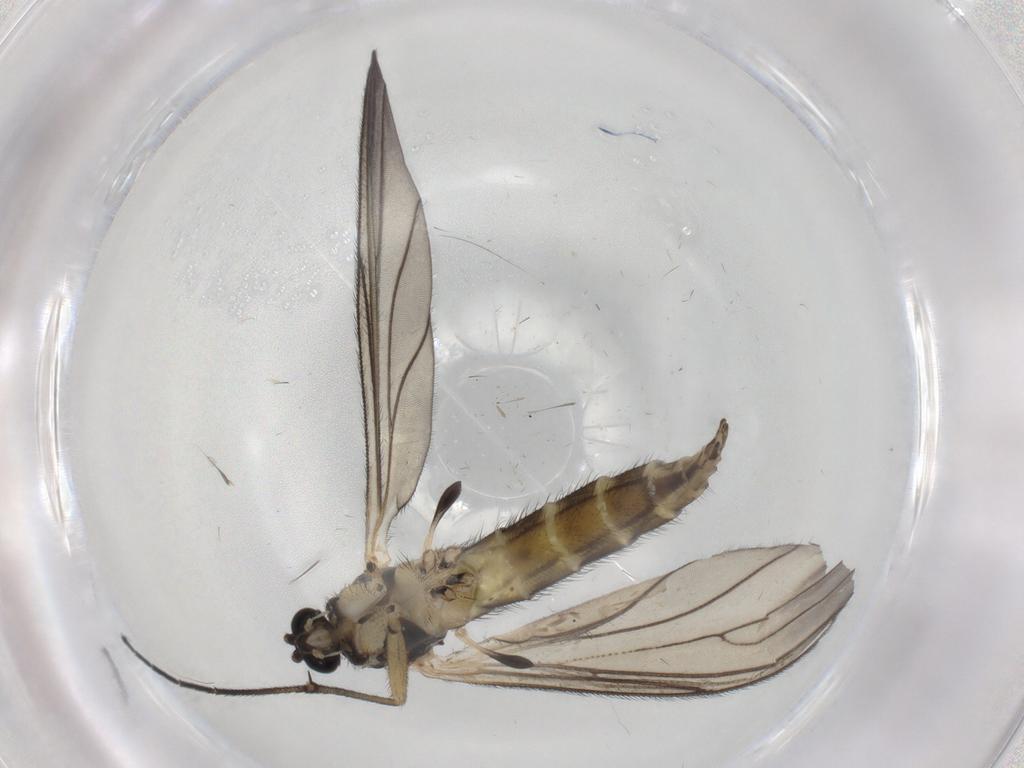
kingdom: Animalia
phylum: Arthropoda
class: Insecta
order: Diptera
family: Sciaridae
